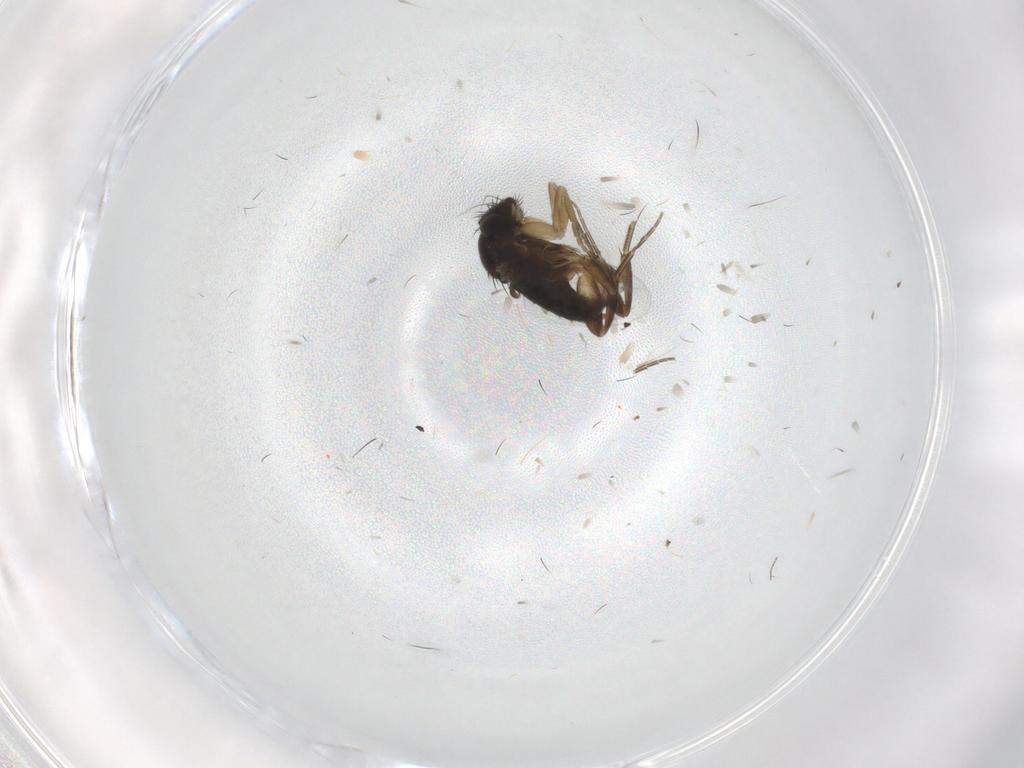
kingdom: Animalia
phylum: Arthropoda
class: Insecta
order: Diptera
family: Phoridae
